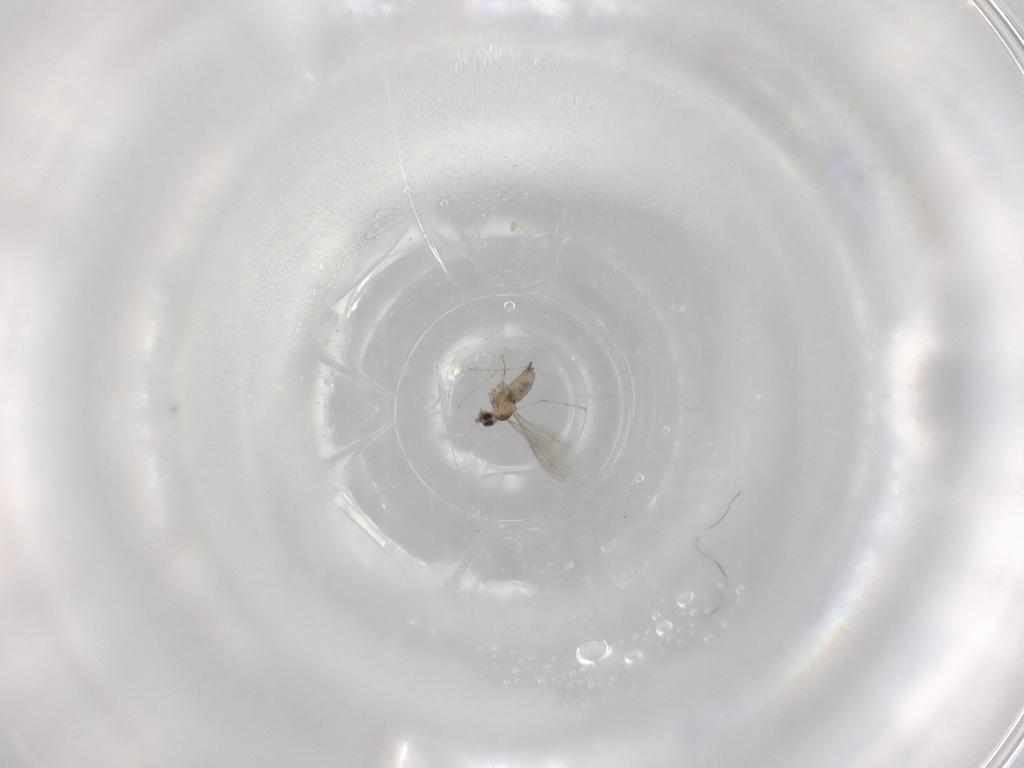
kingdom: Animalia
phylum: Arthropoda
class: Insecta
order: Diptera
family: Cecidomyiidae
